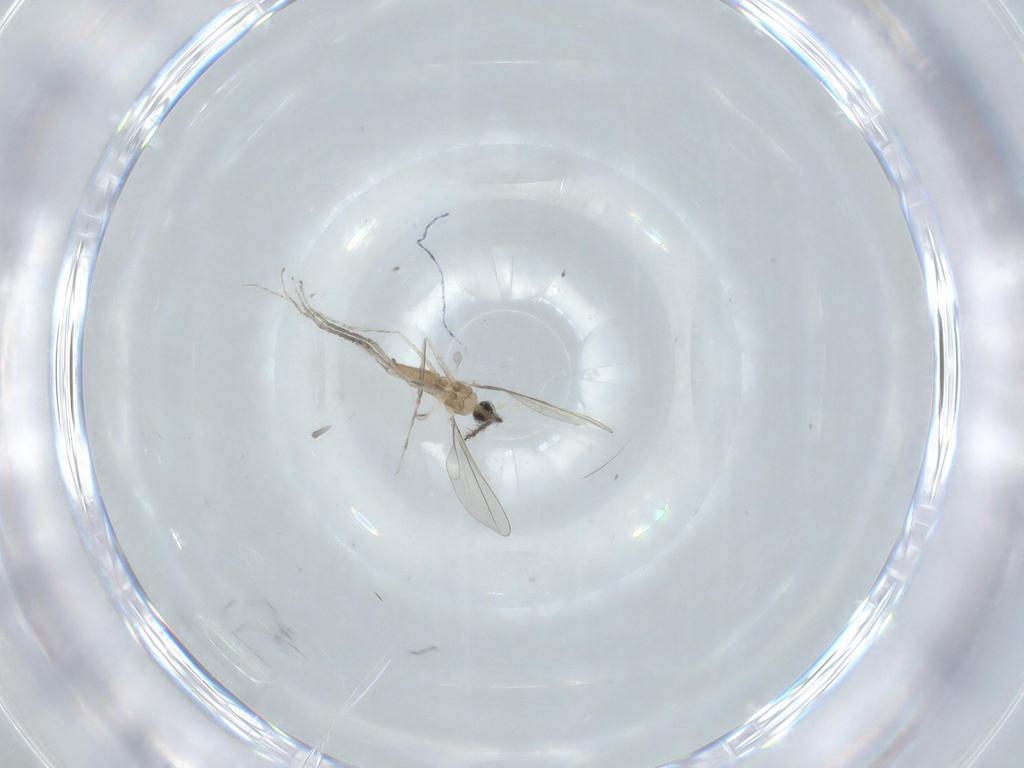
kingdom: Animalia
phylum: Arthropoda
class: Insecta
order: Diptera
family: Cecidomyiidae
